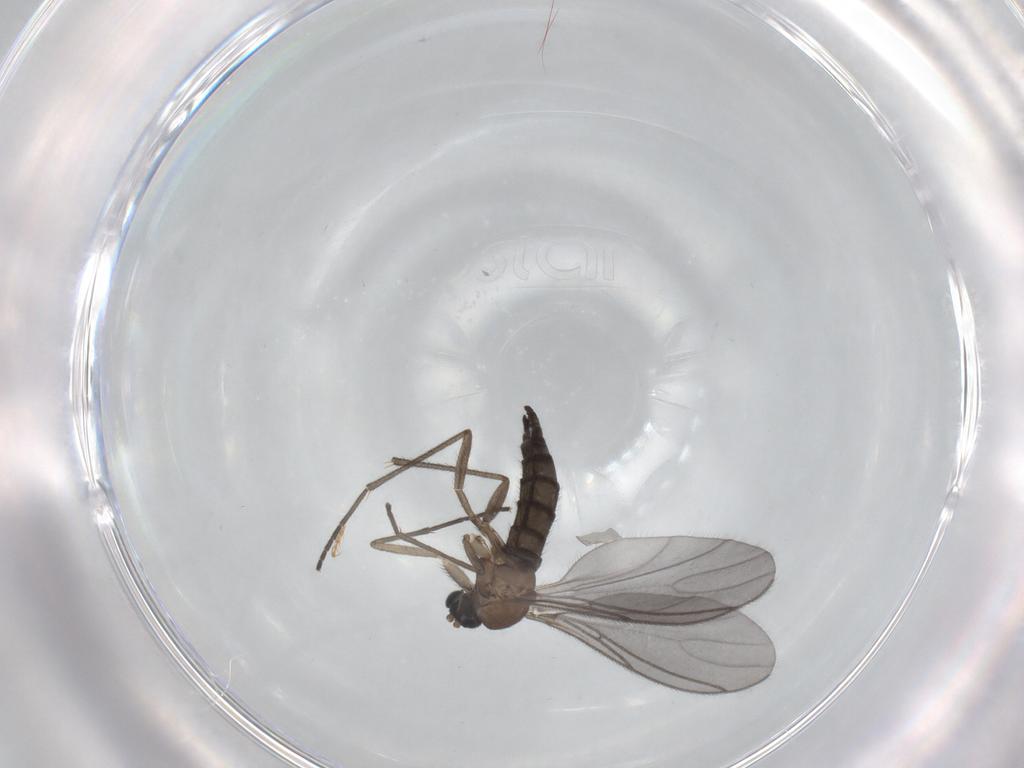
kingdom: Animalia
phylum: Arthropoda
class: Insecta
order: Diptera
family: Sciaridae
